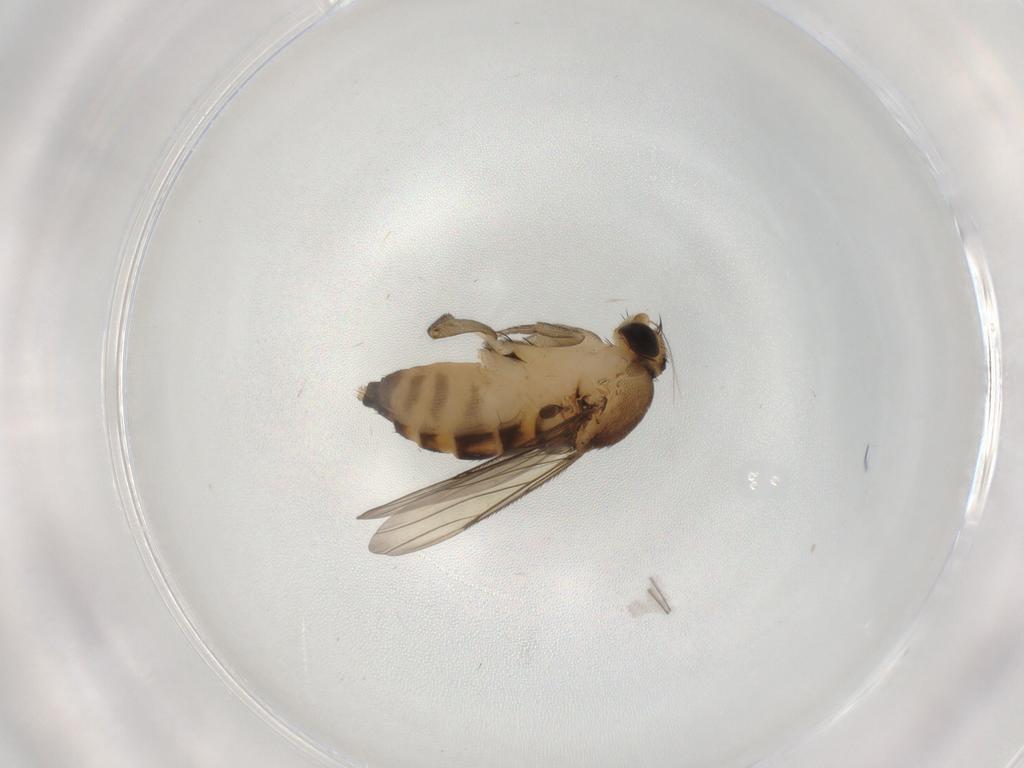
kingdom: Animalia
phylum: Arthropoda
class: Insecta
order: Diptera
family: Phoridae
